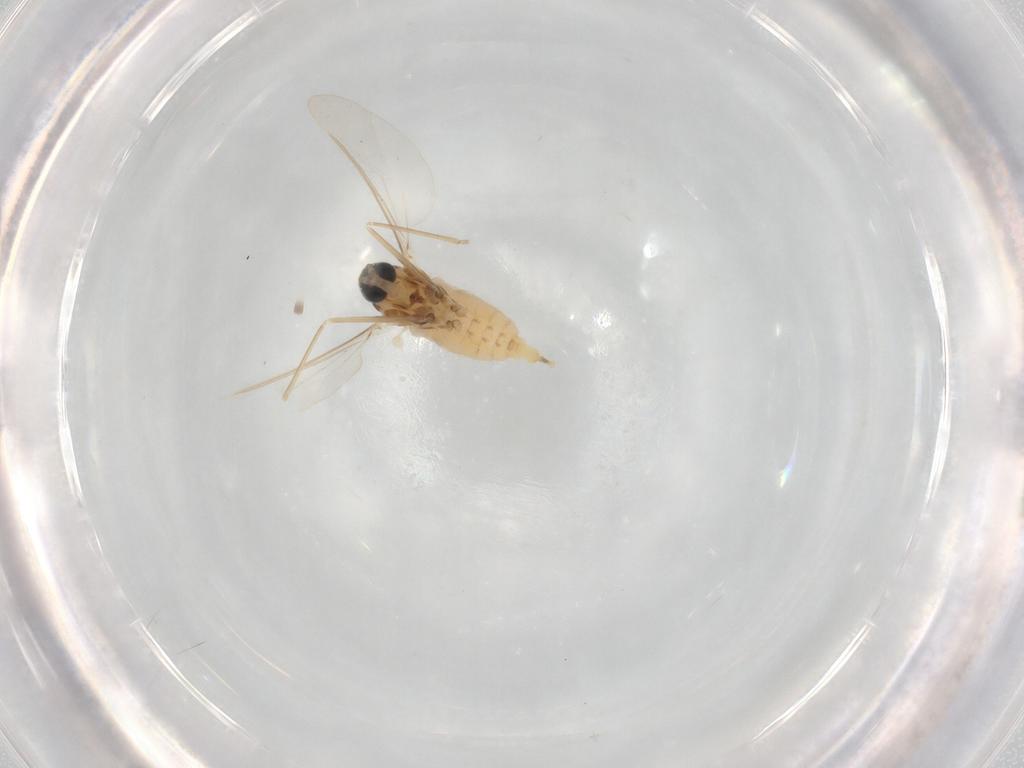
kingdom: Animalia
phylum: Arthropoda
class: Insecta
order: Diptera
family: Cecidomyiidae
